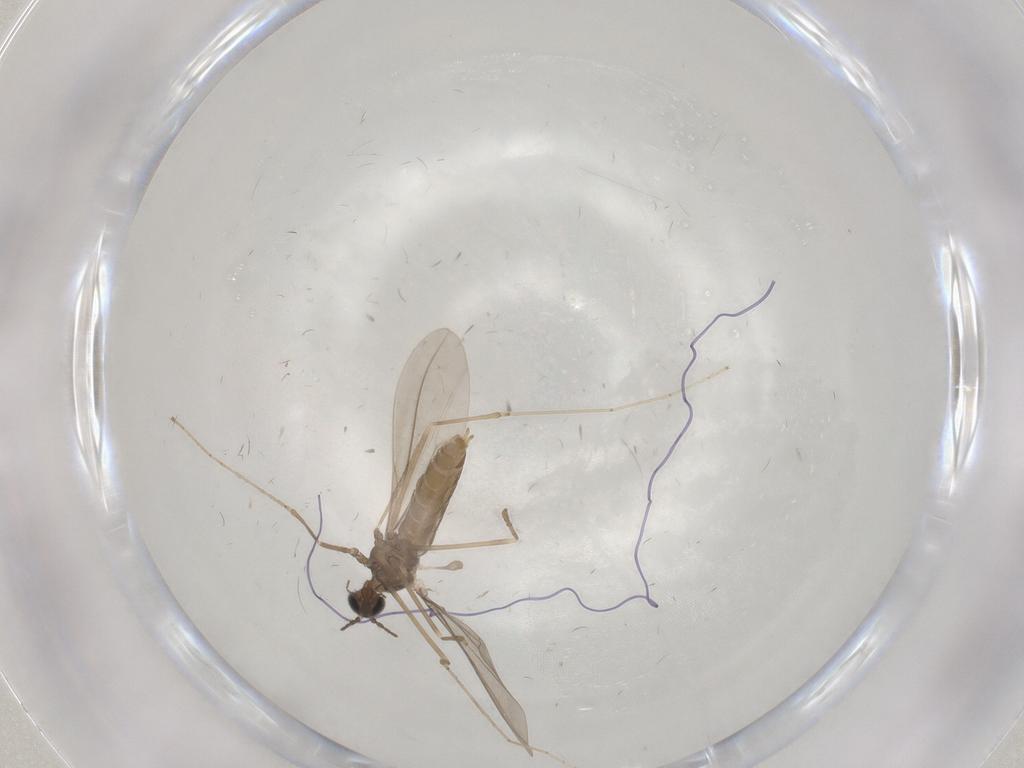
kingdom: Animalia
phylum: Arthropoda
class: Insecta
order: Diptera
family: Cecidomyiidae
